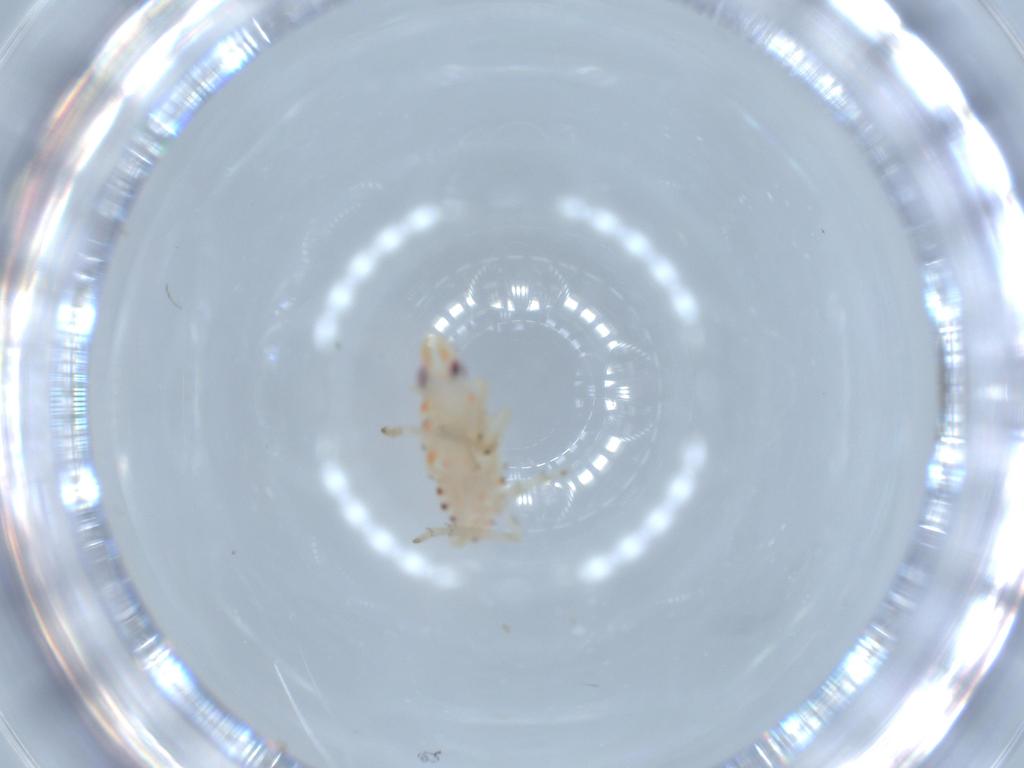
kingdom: Animalia
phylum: Arthropoda
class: Insecta
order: Hemiptera
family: Tropiduchidae
